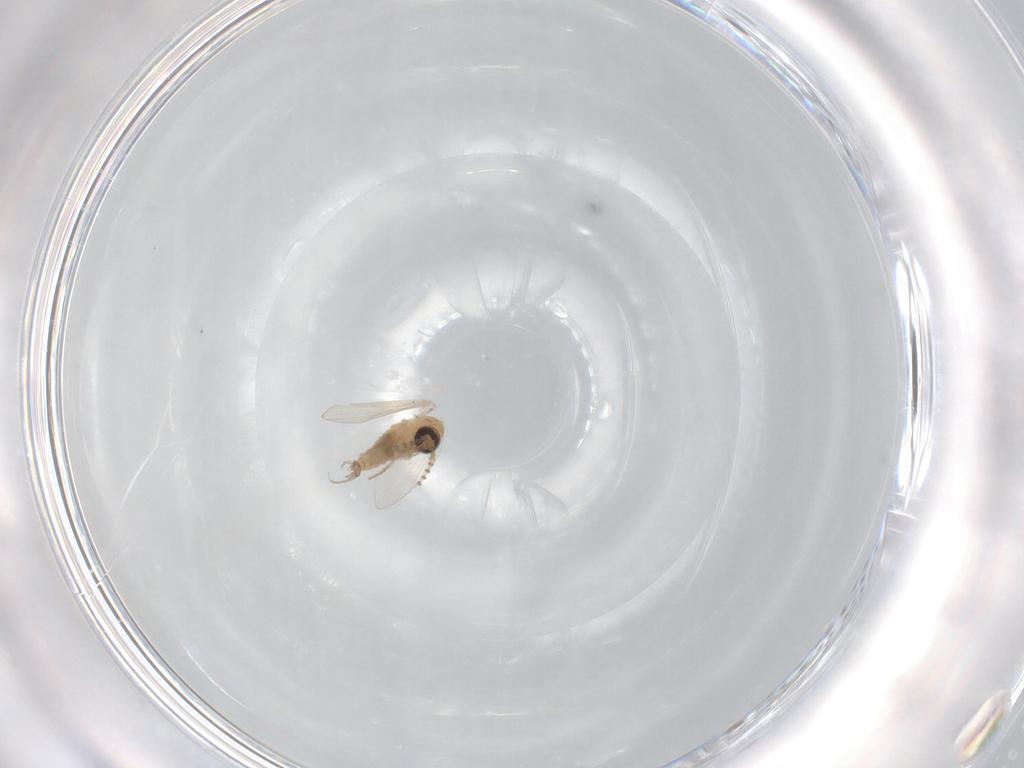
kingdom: Animalia
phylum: Arthropoda
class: Insecta
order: Diptera
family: Psychodidae
